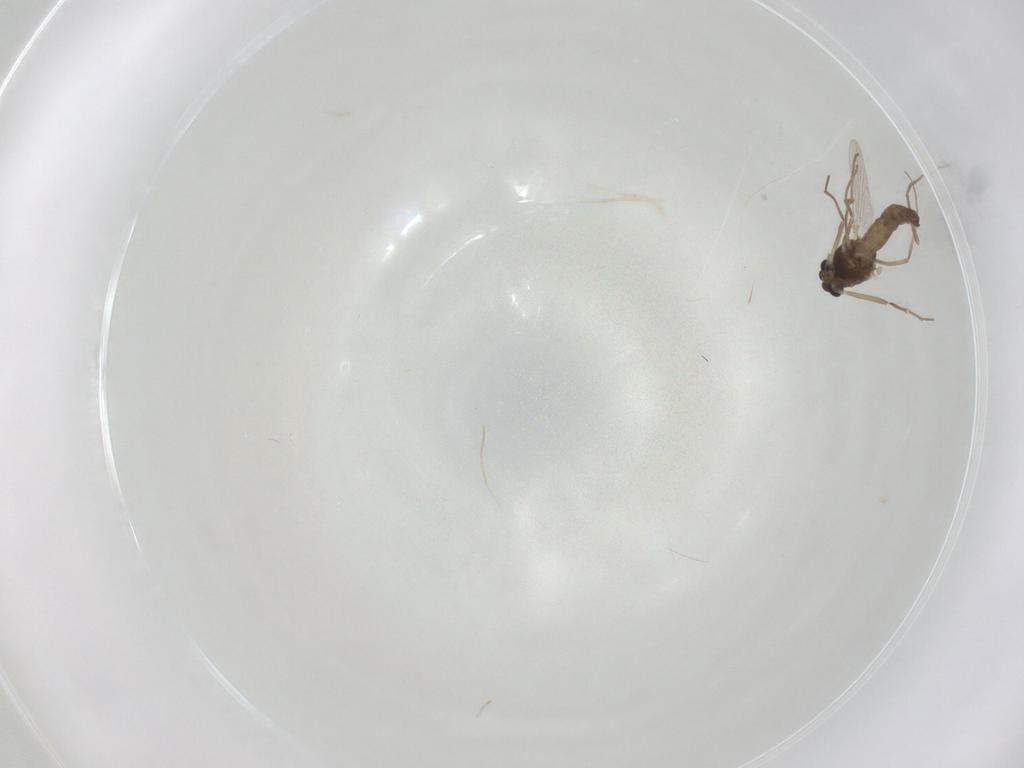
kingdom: Animalia
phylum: Arthropoda
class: Insecta
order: Diptera
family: Chironomidae
